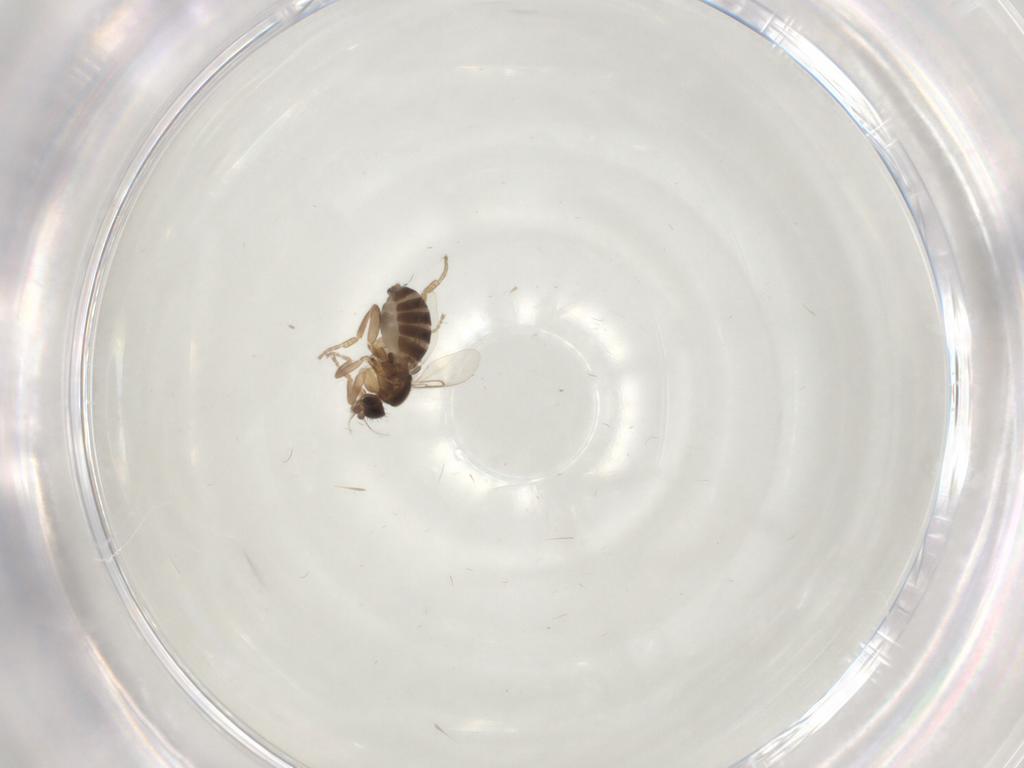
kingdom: Animalia
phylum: Arthropoda
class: Insecta
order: Diptera
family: Phoridae
